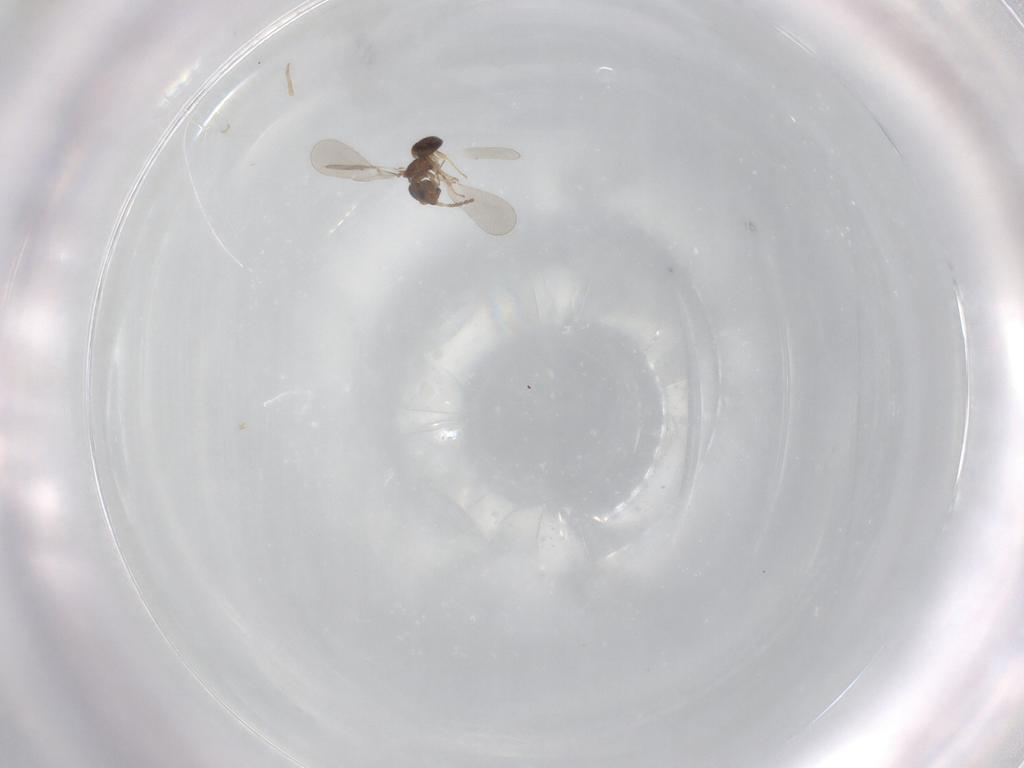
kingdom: Animalia
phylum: Arthropoda
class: Insecta
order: Hymenoptera
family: Bethylidae
